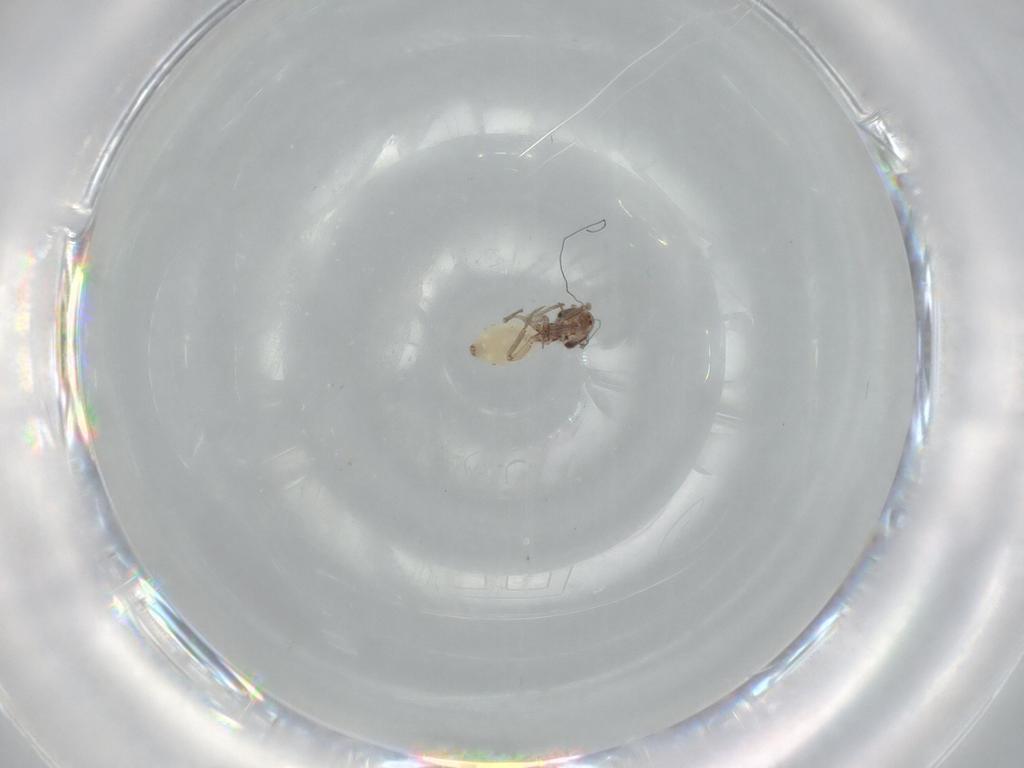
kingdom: Animalia
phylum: Arthropoda
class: Insecta
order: Psocodea
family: Lepidopsocidae
